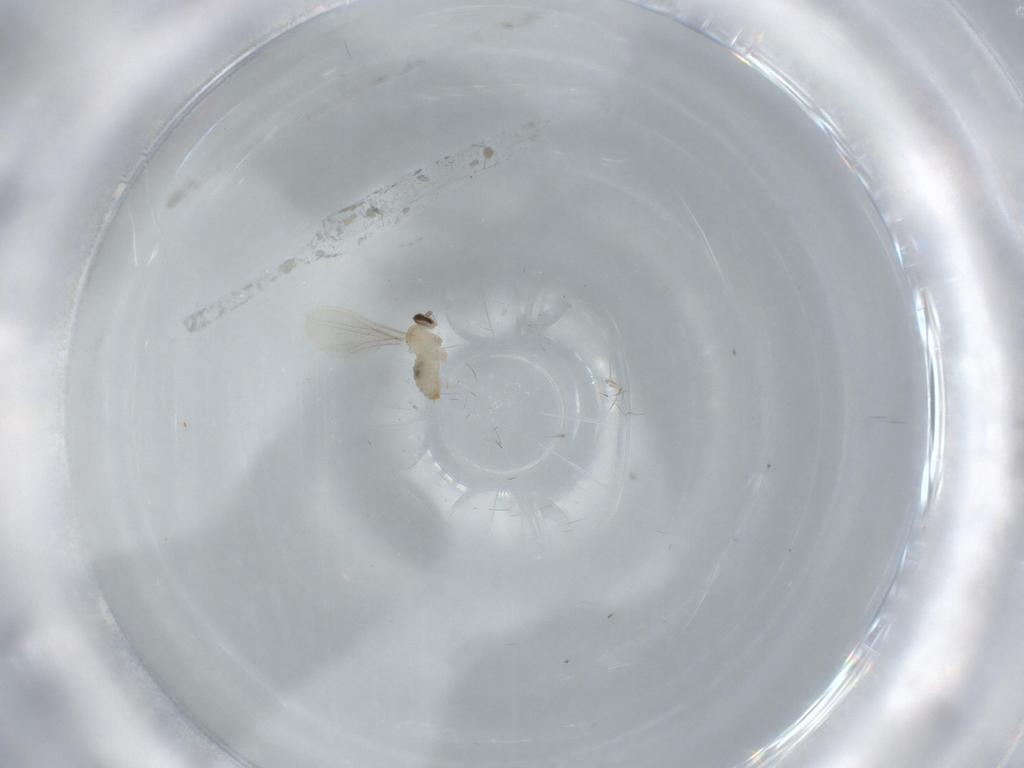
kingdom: Animalia
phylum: Arthropoda
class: Insecta
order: Diptera
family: Cecidomyiidae
